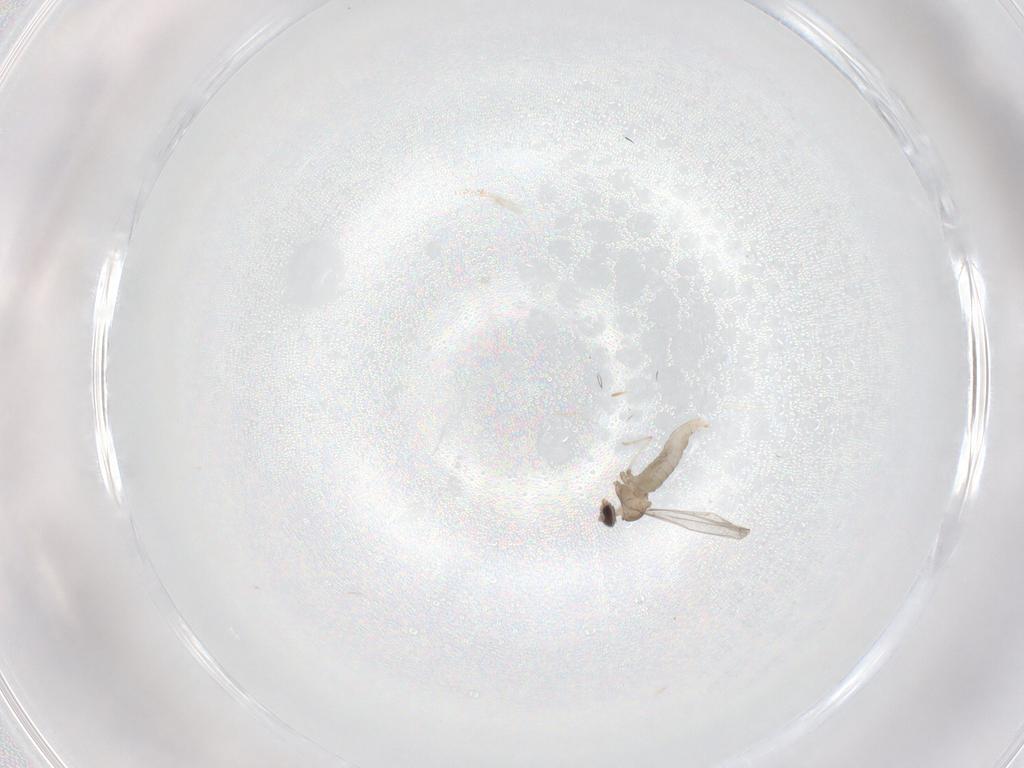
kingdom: Animalia
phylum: Arthropoda
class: Insecta
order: Diptera
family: Cecidomyiidae
